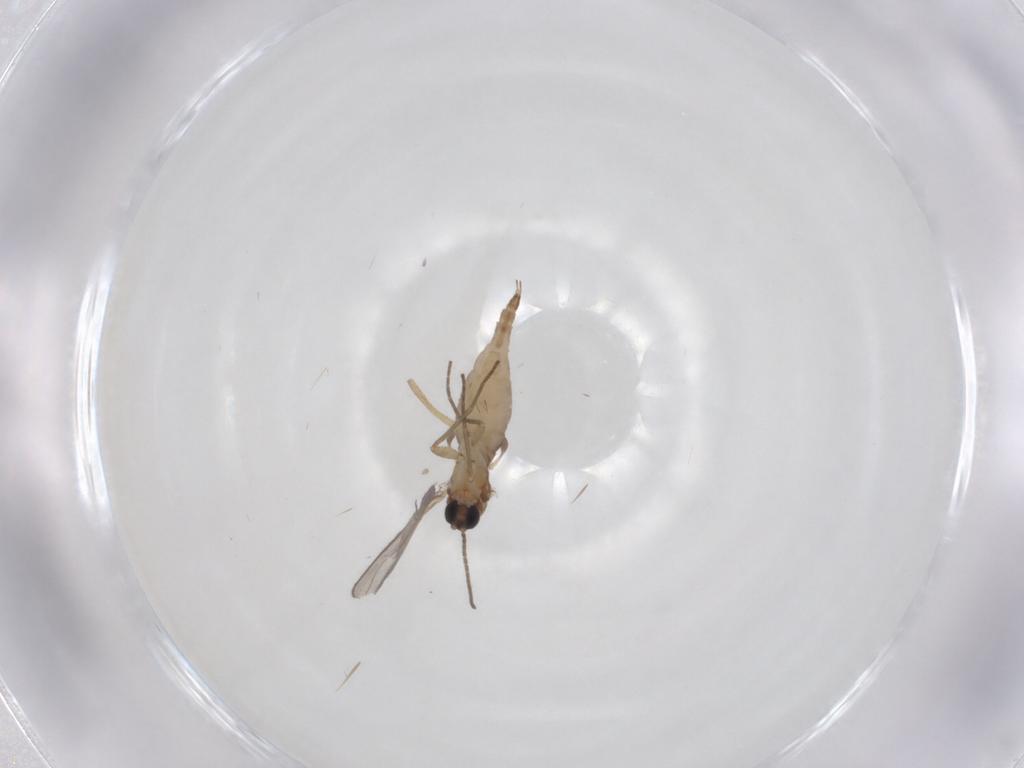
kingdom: Animalia
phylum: Arthropoda
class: Insecta
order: Diptera
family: Sciaridae
